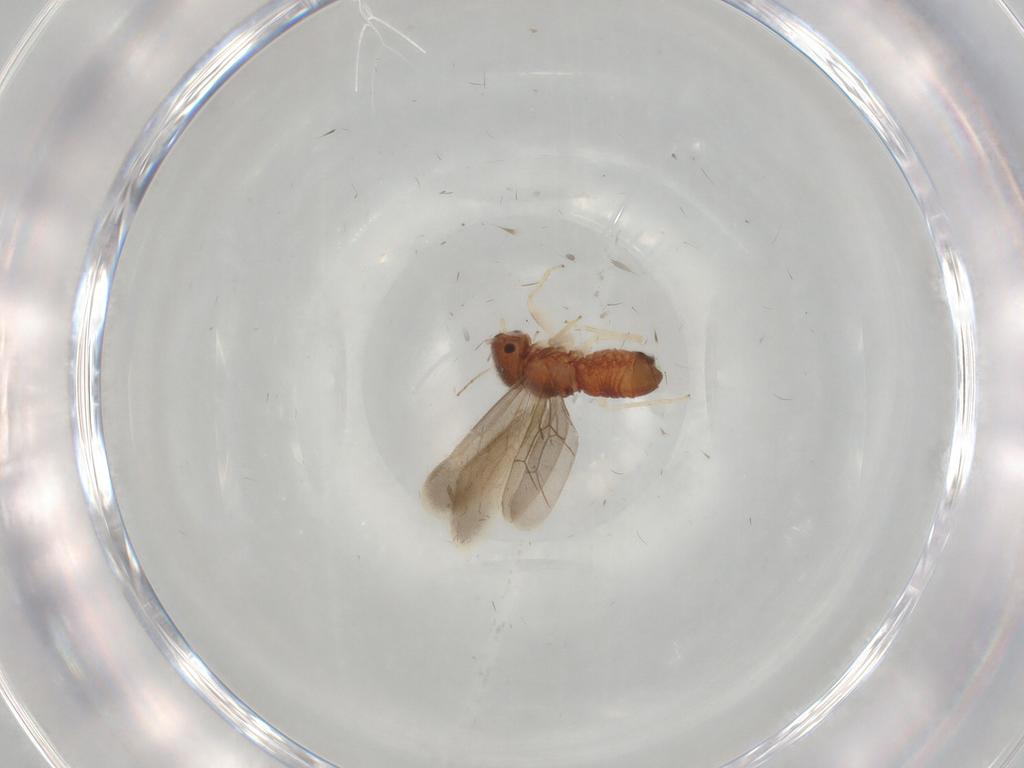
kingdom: Animalia
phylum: Arthropoda
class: Insecta
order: Psocodea
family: Archipsocidae
